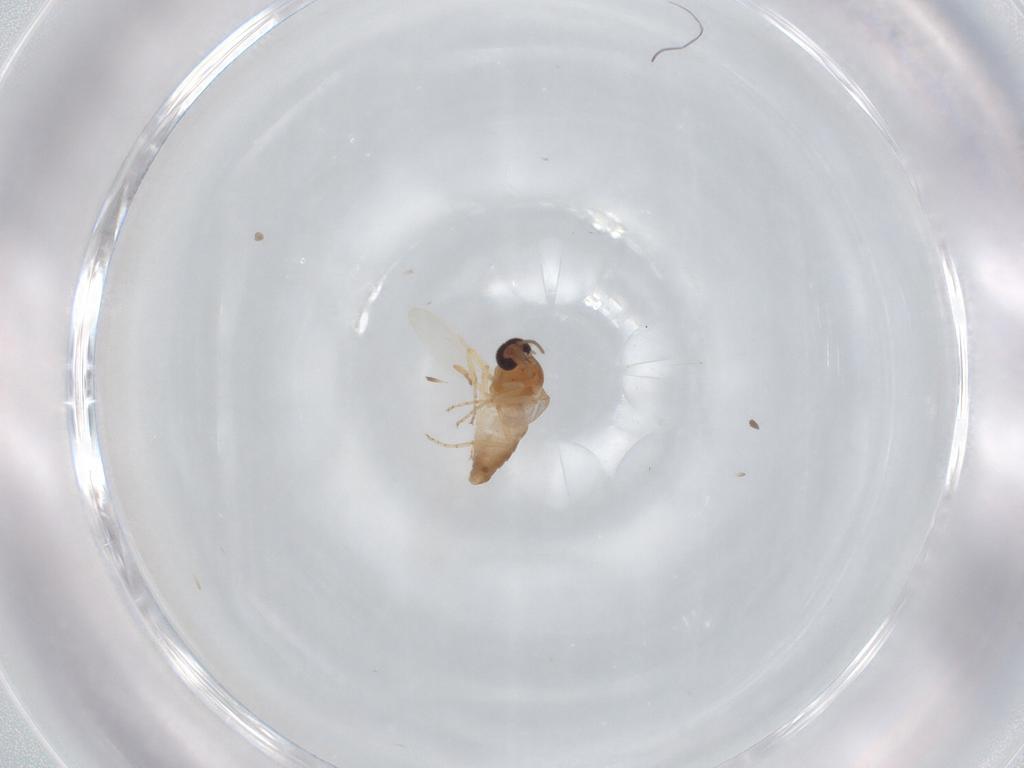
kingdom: Animalia
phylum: Arthropoda
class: Insecta
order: Diptera
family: Ceratopogonidae
